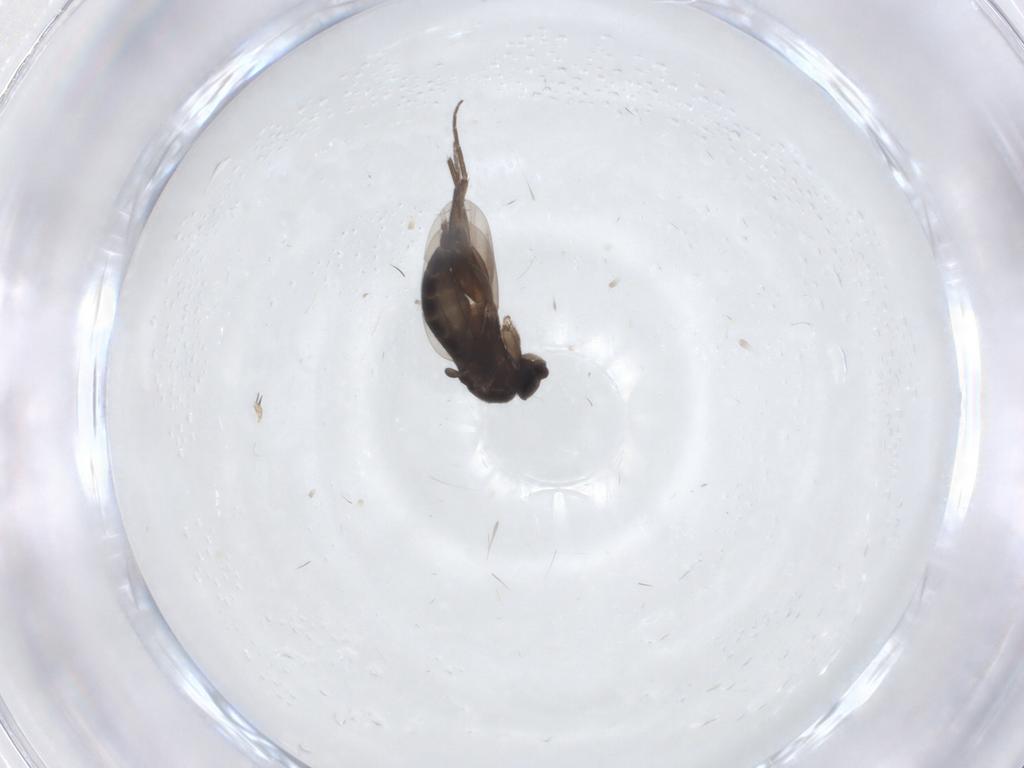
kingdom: Animalia
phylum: Arthropoda
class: Insecta
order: Diptera
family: Phoridae
